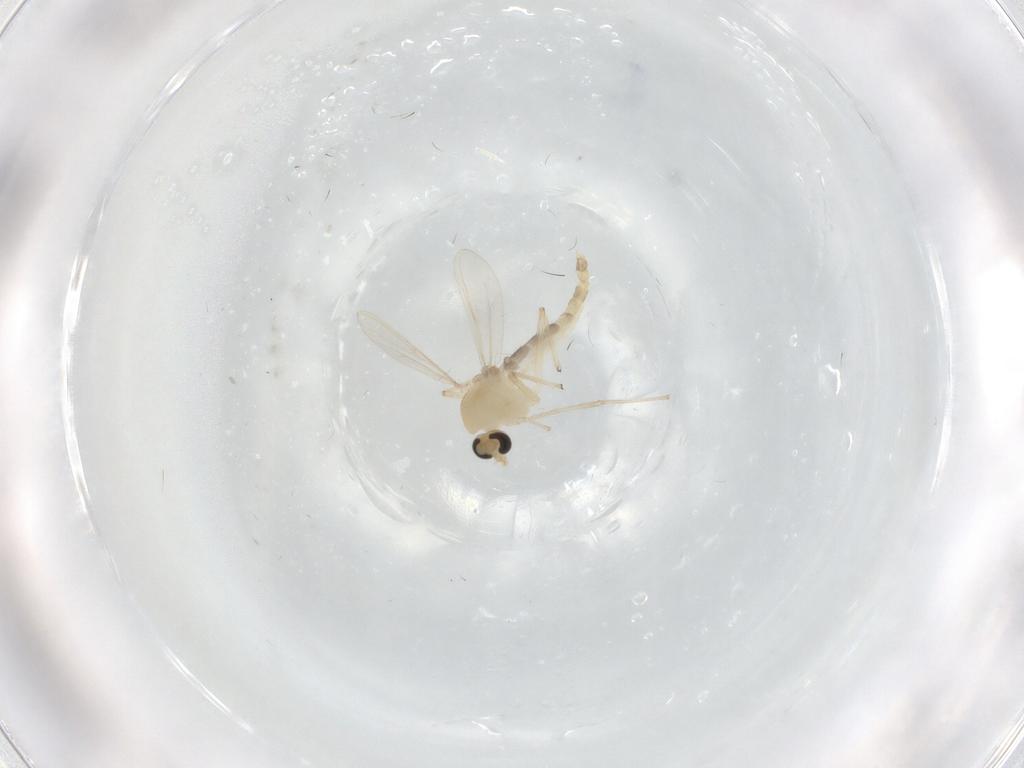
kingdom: Animalia
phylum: Arthropoda
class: Insecta
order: Diptera
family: Chironomidae
